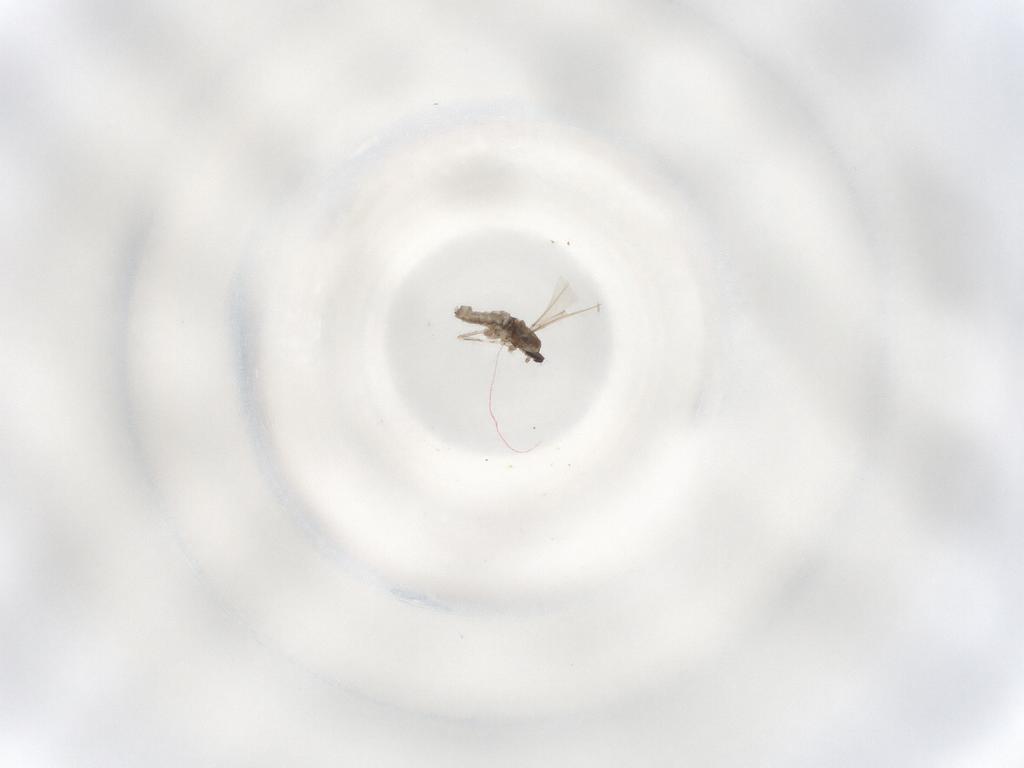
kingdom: Animalia
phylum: Arthropoda
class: Insecta
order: Diptera
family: Cecidomyiidae
